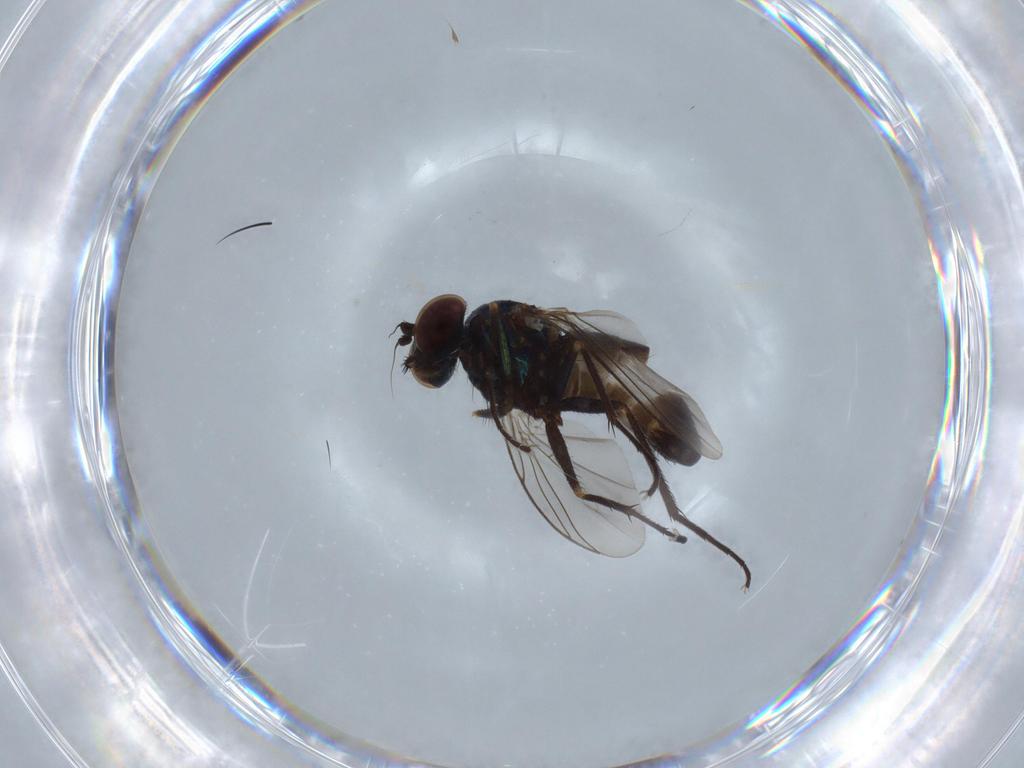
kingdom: Animalia
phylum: Arthropoda
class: Insecta
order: Diptera
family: Dolichopodidae
